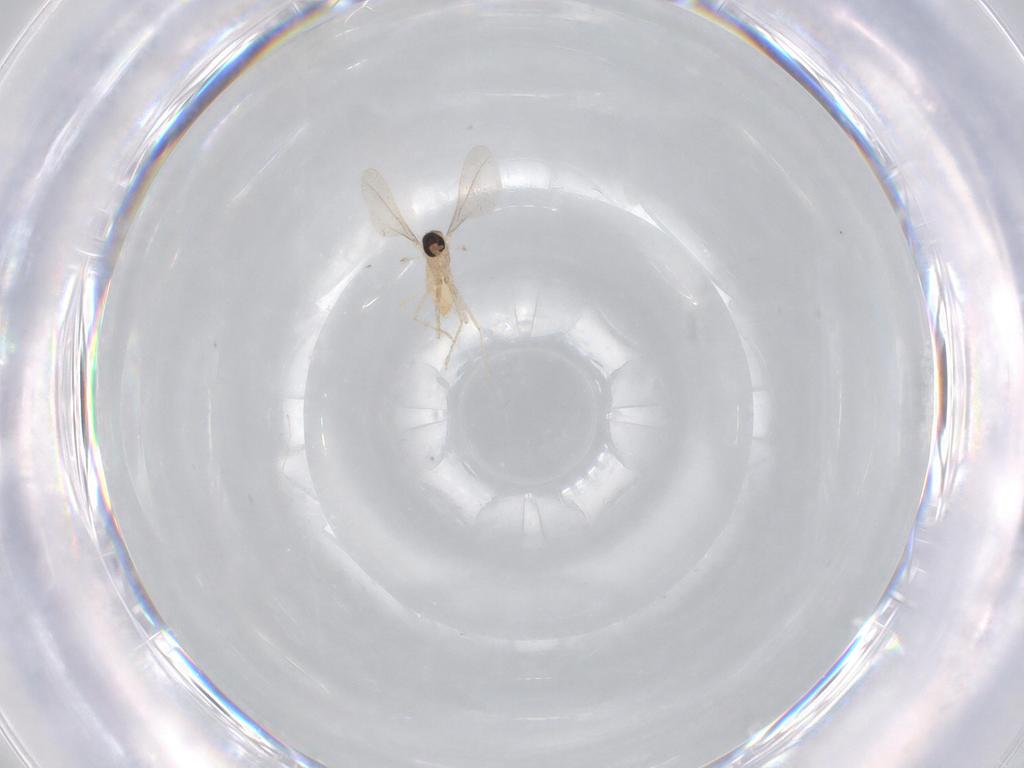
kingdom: Animalia
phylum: Arthropoda
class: Insecta
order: Diptera
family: Cecidomyiidae
